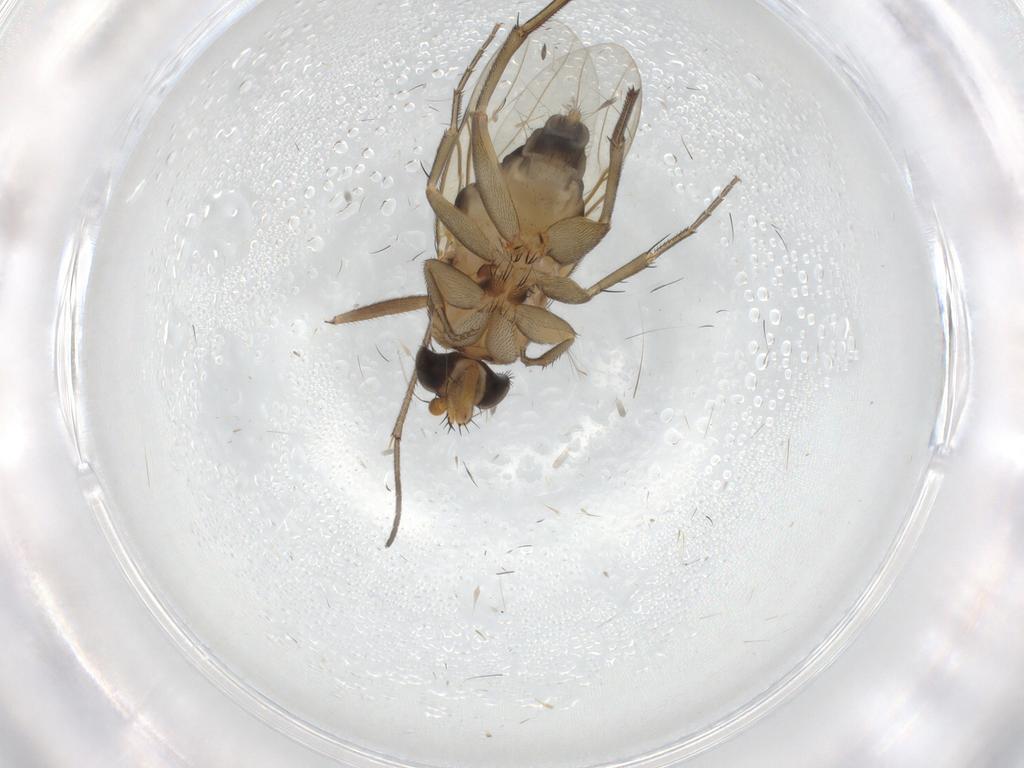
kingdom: Animalia
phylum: Arthropoda
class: Insecta
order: Diptera
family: Phoridae
